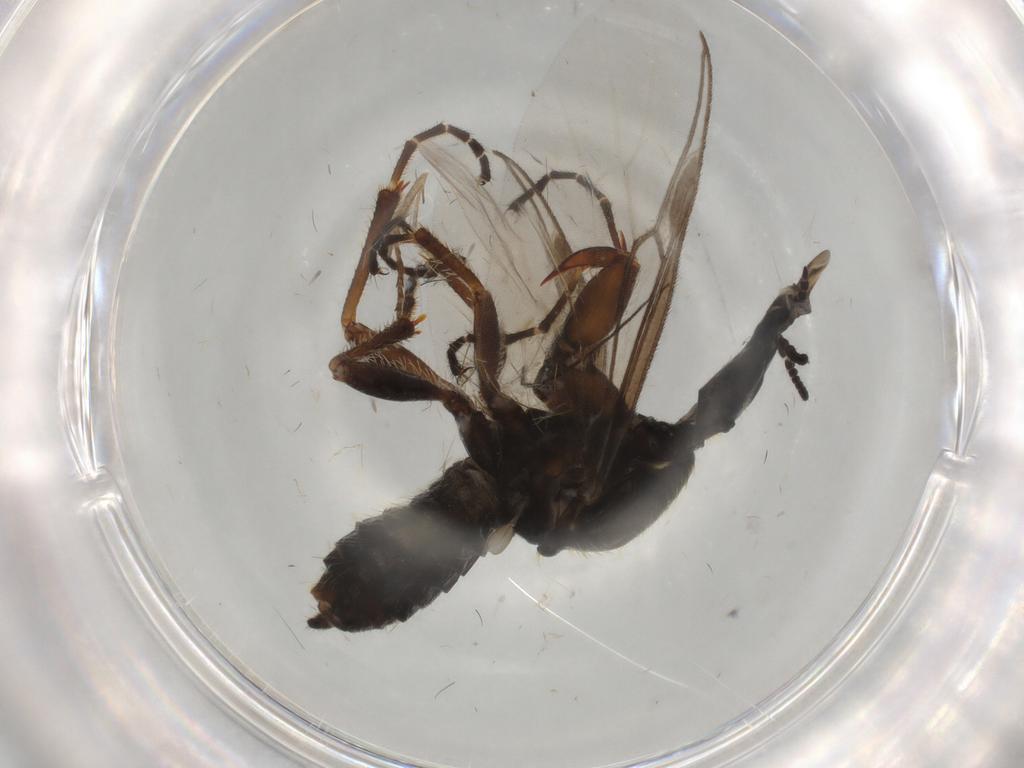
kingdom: Animalia
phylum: Arthropoda
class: Insecta
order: Diptera
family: Bibionidae
